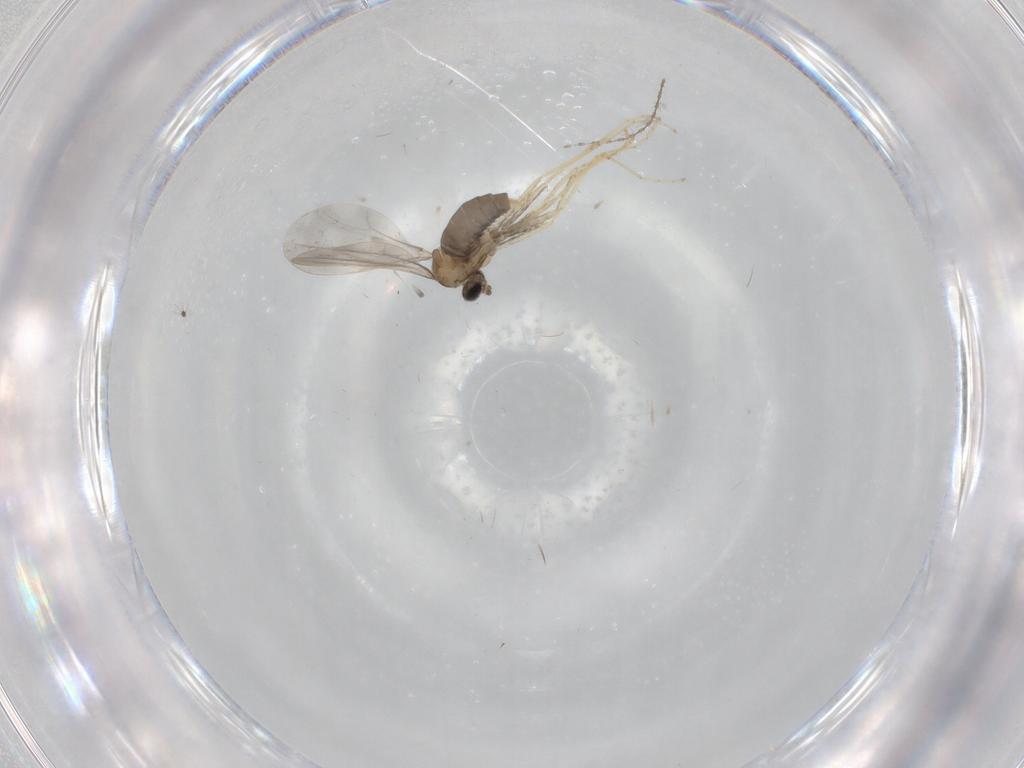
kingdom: Animalia
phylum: Arthropoda
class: Insecta
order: Diptera
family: Cecidomyiidae
